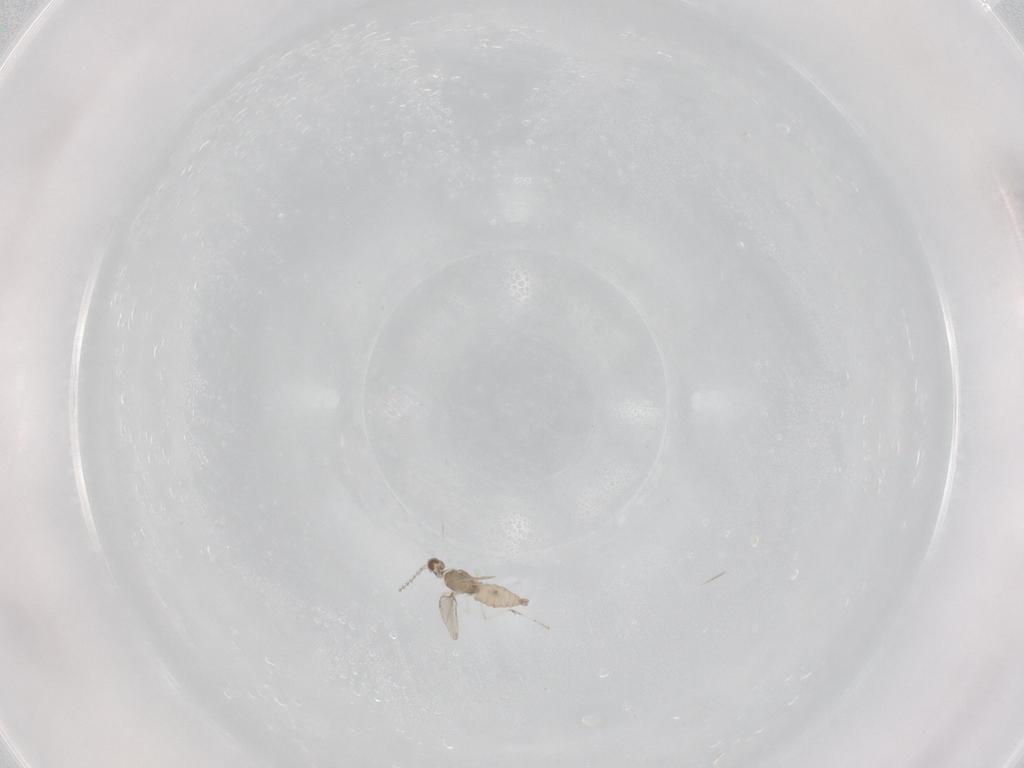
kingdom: Animalia
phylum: Arthropoda
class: Insecta
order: Diptera
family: Cecidomyiidae
